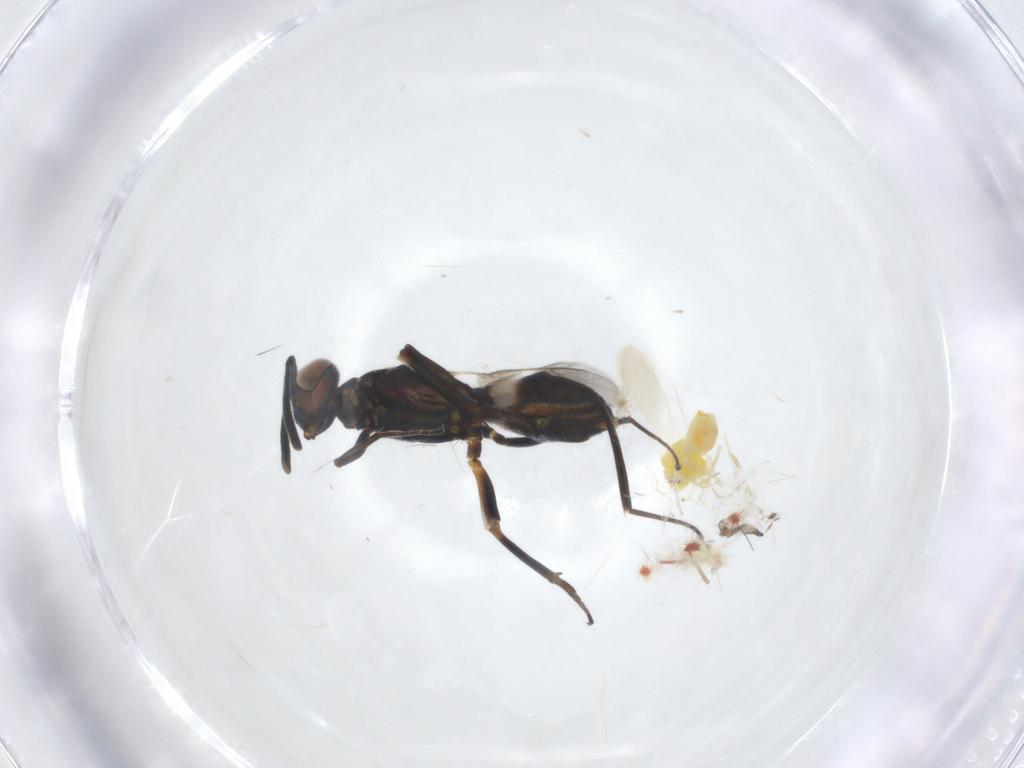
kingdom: Animalia
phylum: Arthropoda
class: Insecta
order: Hymenoptera
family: Eupelmidae
